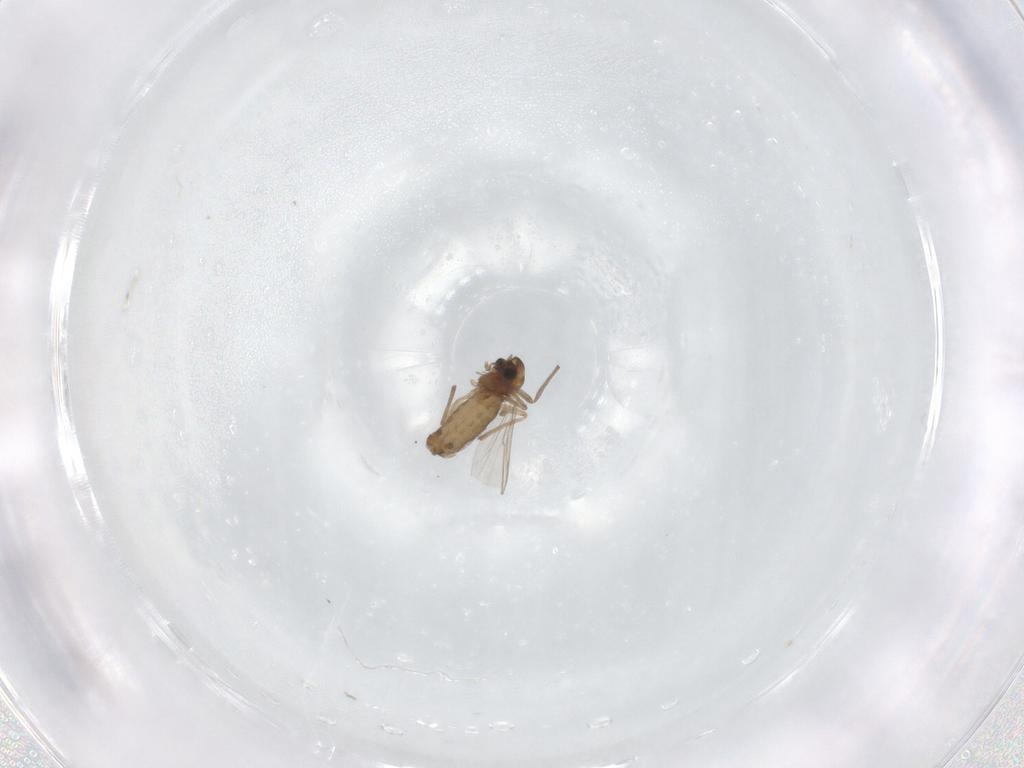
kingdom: Animalia
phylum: Arthropoda
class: Insecta
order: Diptera
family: Chironomidae
